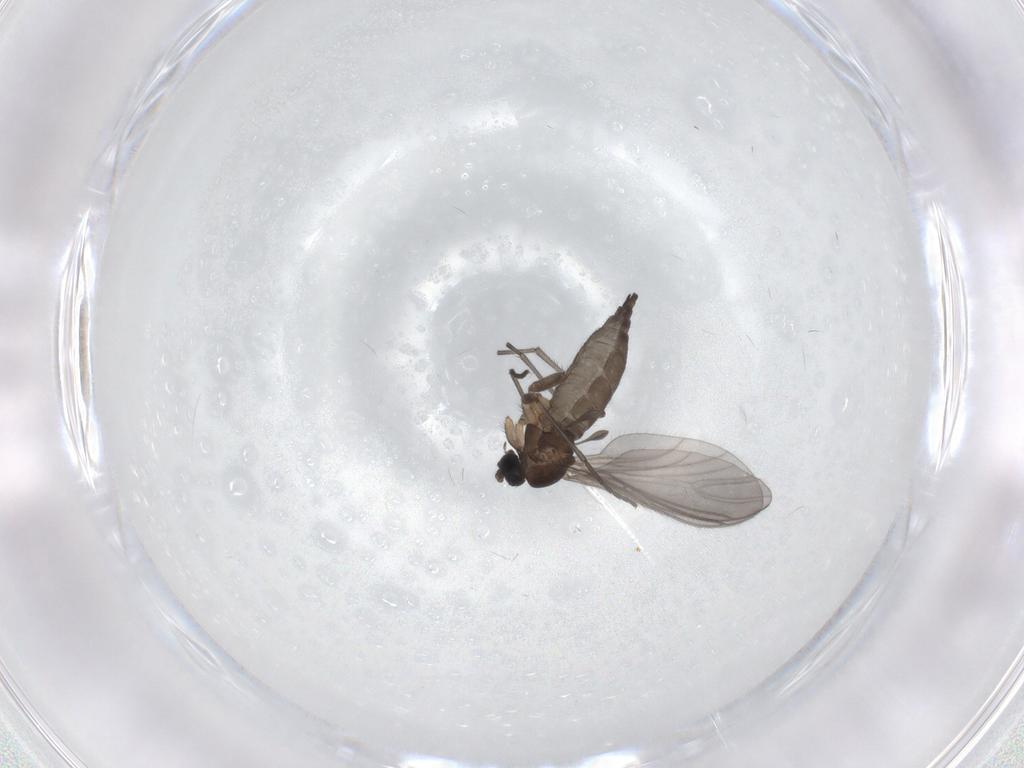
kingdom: Animalia
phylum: Arthropoda
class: Insecta
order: Diptera
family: Sciaridae
